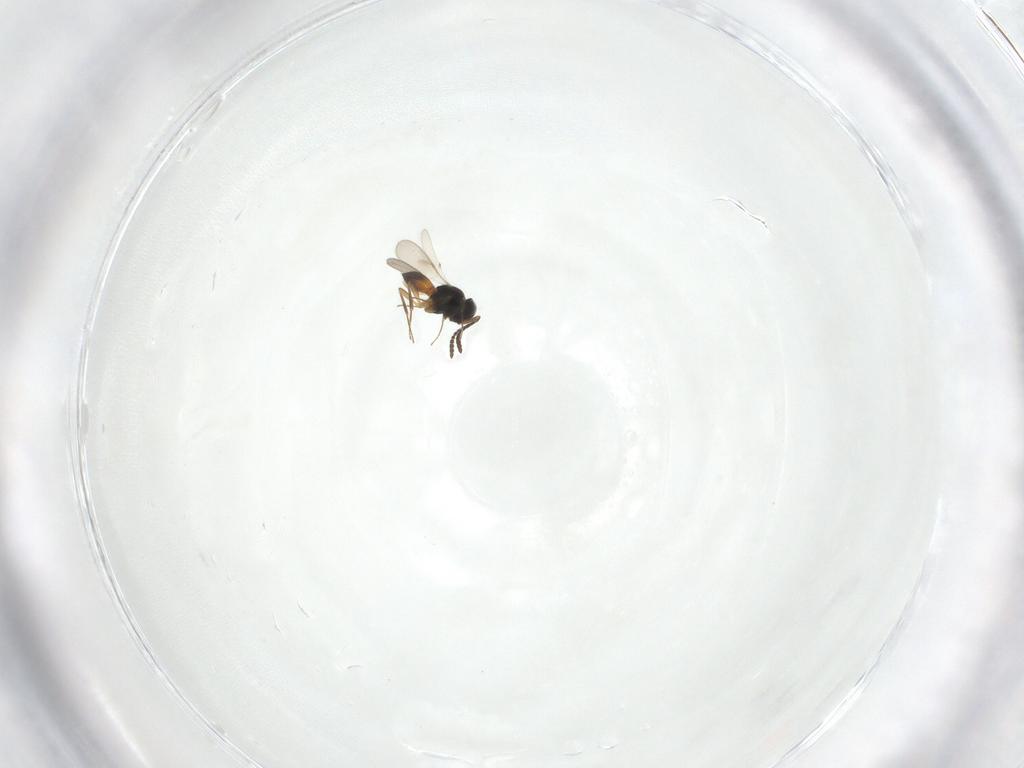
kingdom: Animalia
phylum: Arthropoda
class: Insecta
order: Hymenoptera
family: Scelionidae
